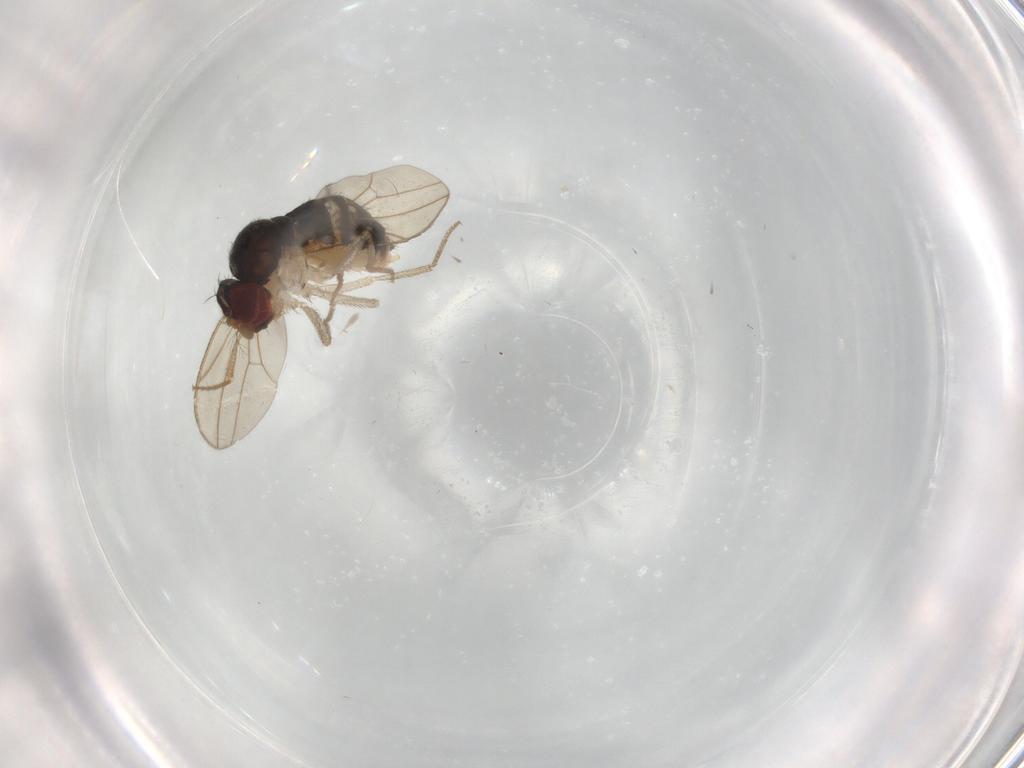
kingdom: Animalia
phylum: Arthropoda
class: Insecta
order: Diptera
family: Drosophilidae
